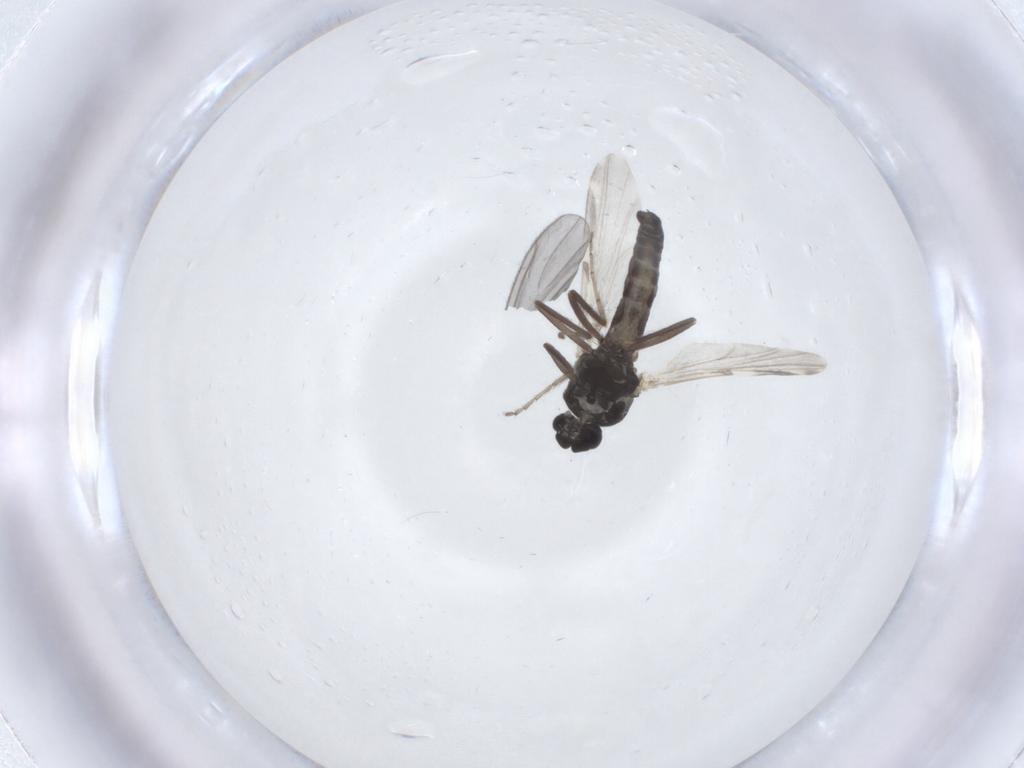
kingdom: Animalia
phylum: Arthropoda
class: Insecta
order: Diptera
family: Ceratopogonidae
